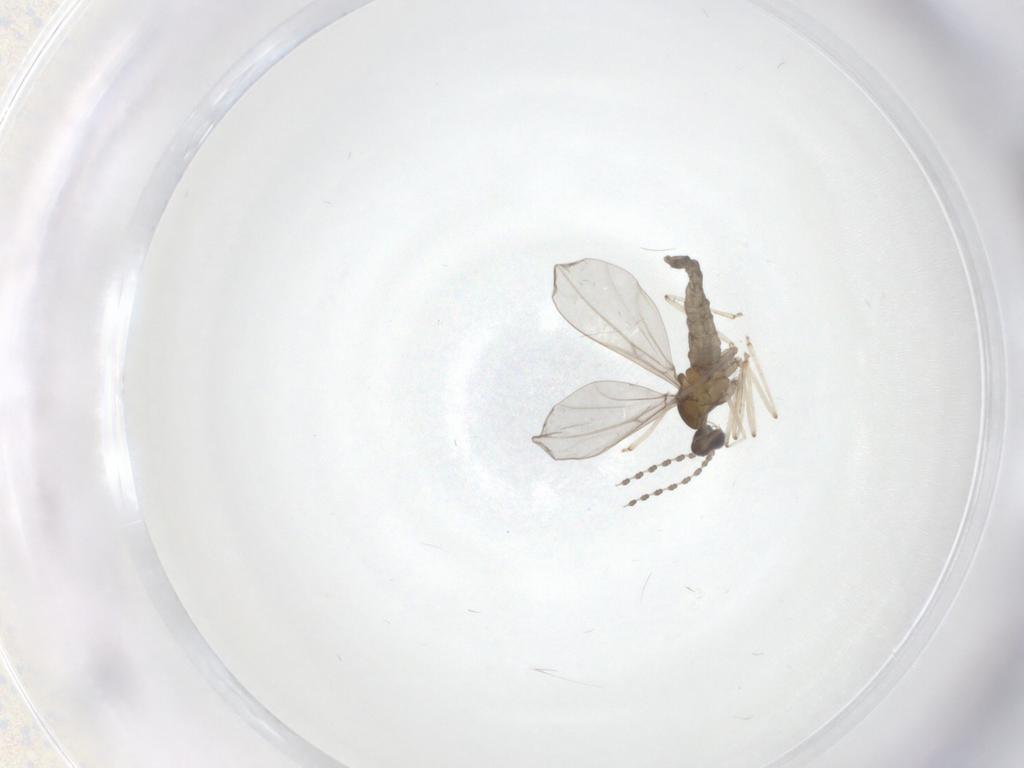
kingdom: Animalia
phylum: Arthropoda
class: Insecta
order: Diptera
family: Cecidomyiidae
